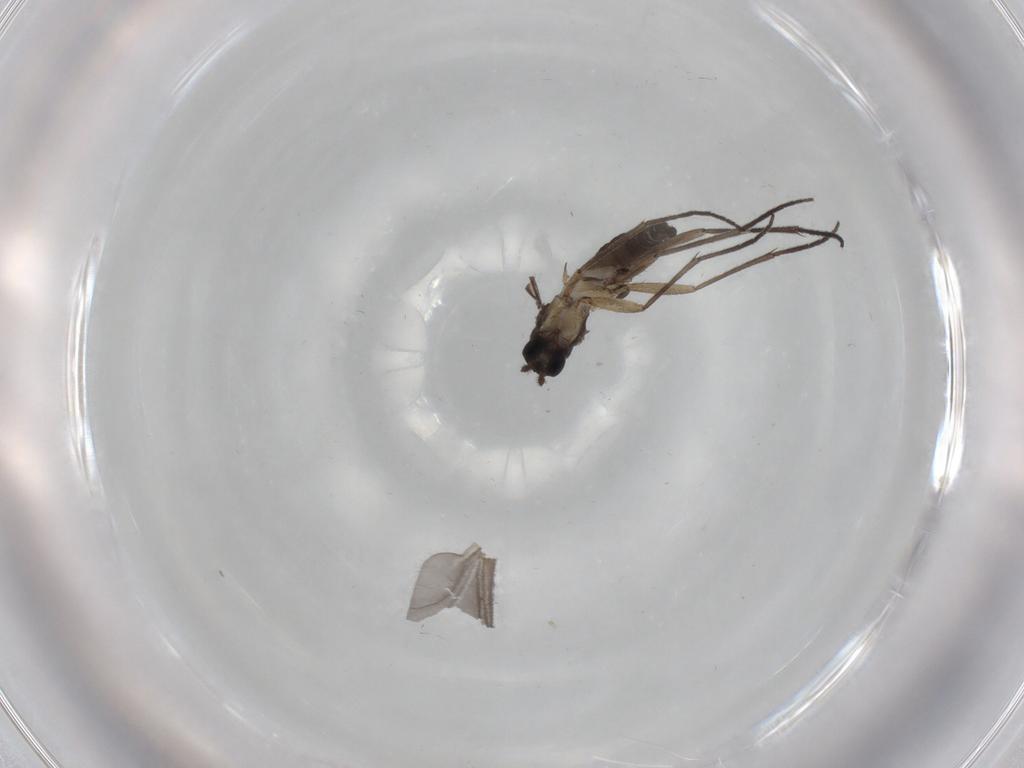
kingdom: Animalia
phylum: Arthropoda
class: Insecta
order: Diptera
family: Sciaridae
